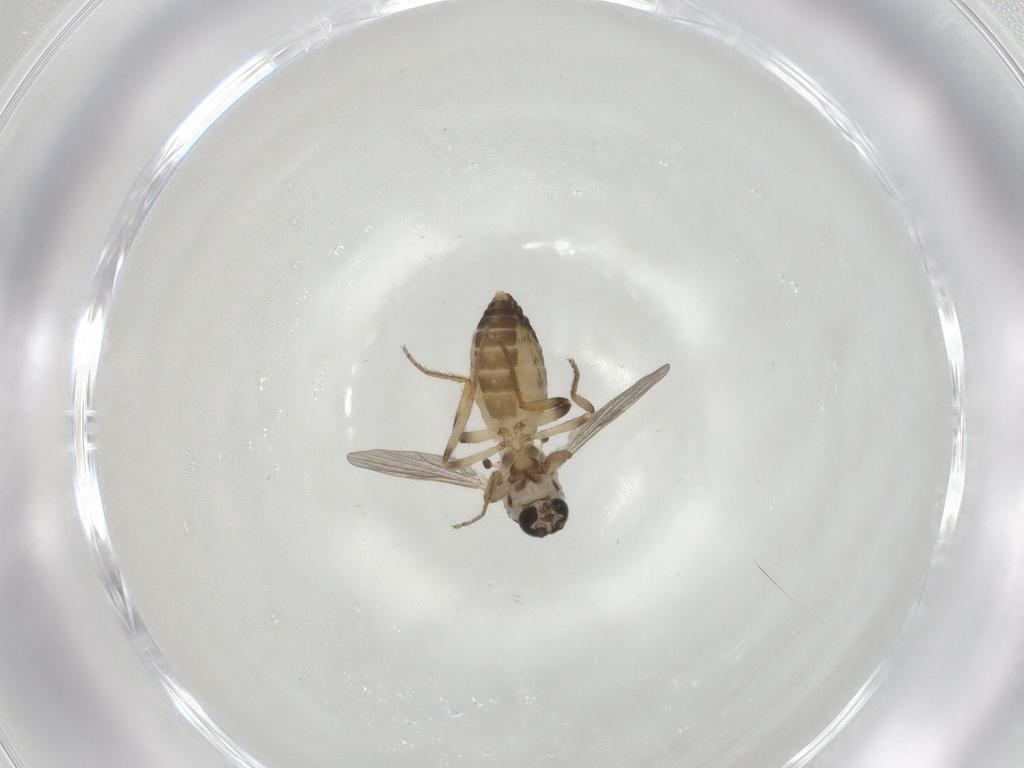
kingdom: Animalia
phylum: Arthropoda
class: Insecta
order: Diptera
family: Ceratopogonidae
